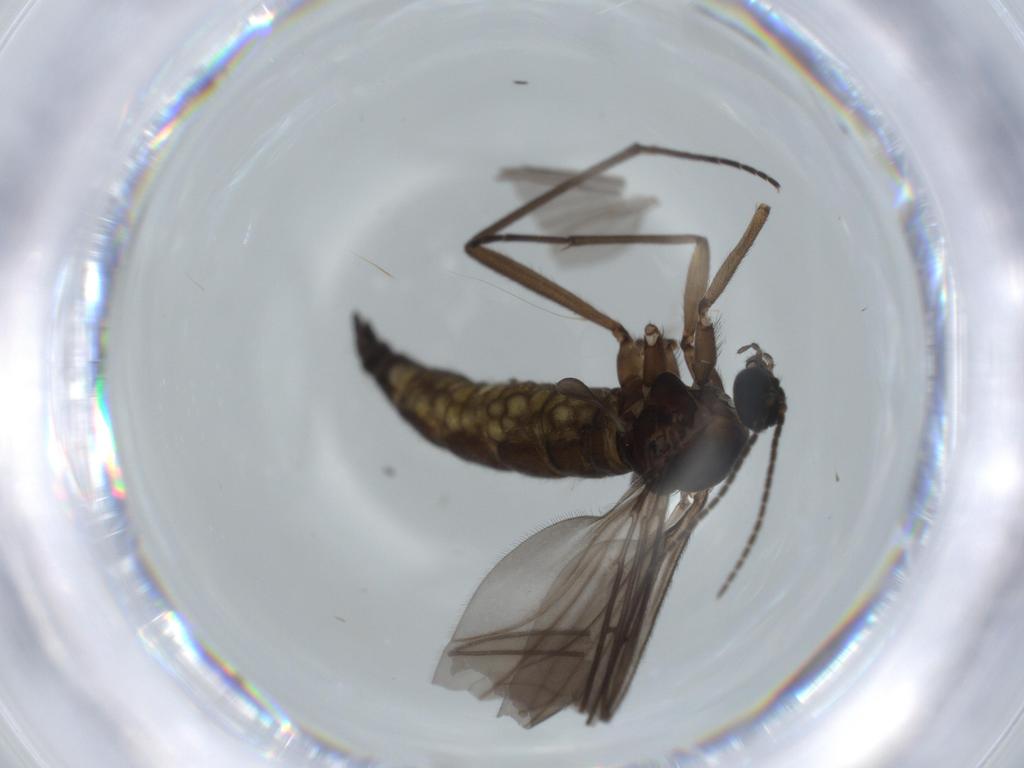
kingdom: Animalia
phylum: Arthropoda
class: Insecta
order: Diptera
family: Sciaridae
